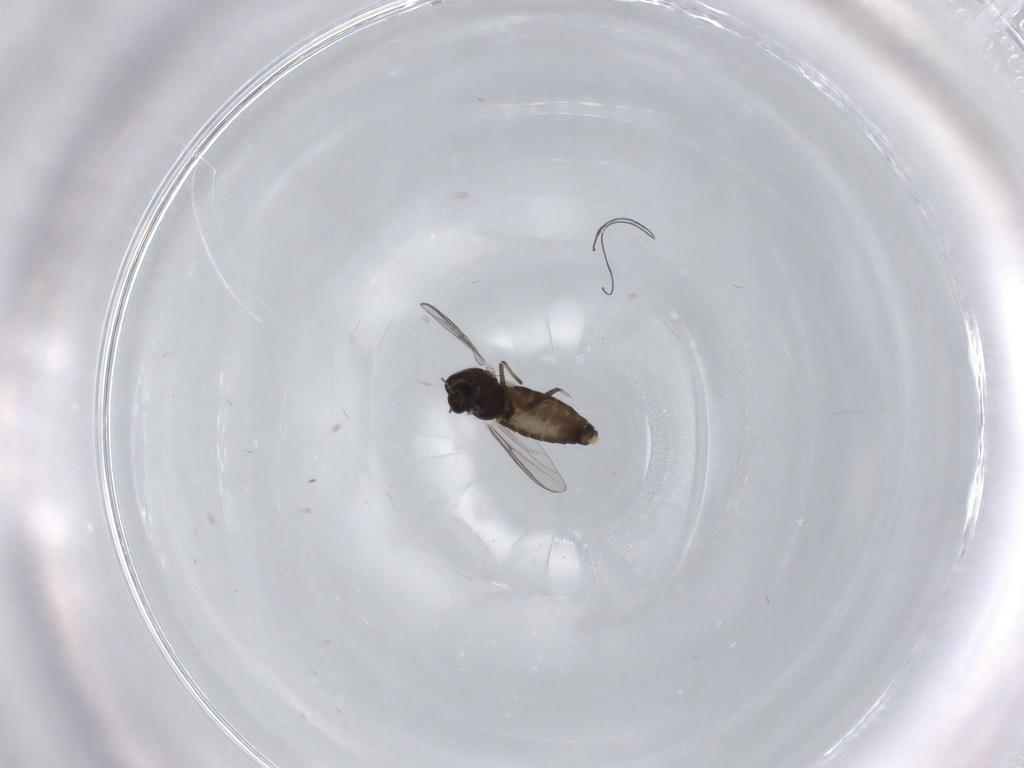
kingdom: Animalia
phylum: Arthropoda
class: Insecta
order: Diptera
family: Chironomidae
